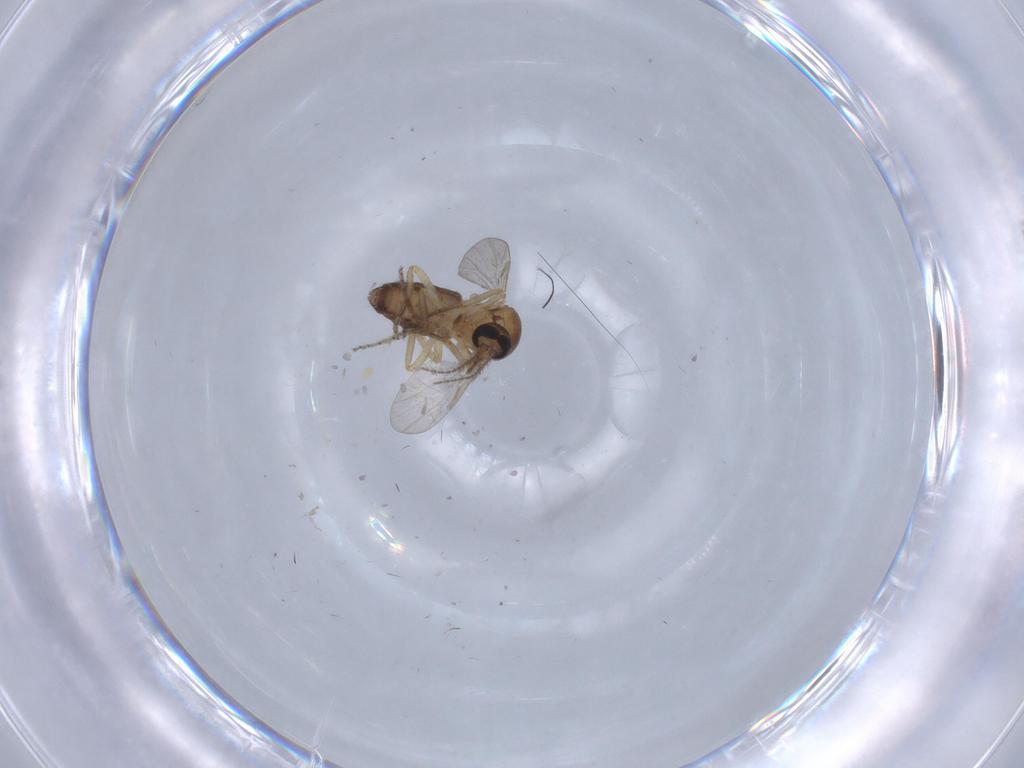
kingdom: Animalia
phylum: Arthropoda
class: Insecta
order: Diptera
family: Ceratopogonidae
